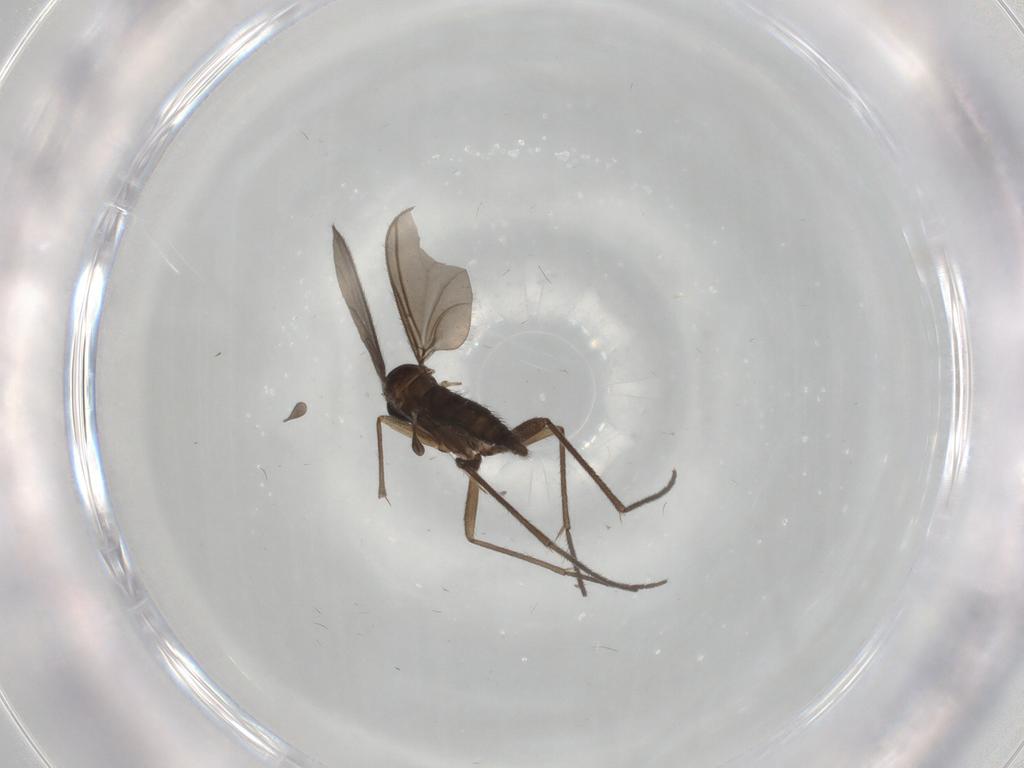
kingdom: Animalia
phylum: Arthropoda
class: Insecta
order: Diptera
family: Sciaridae
